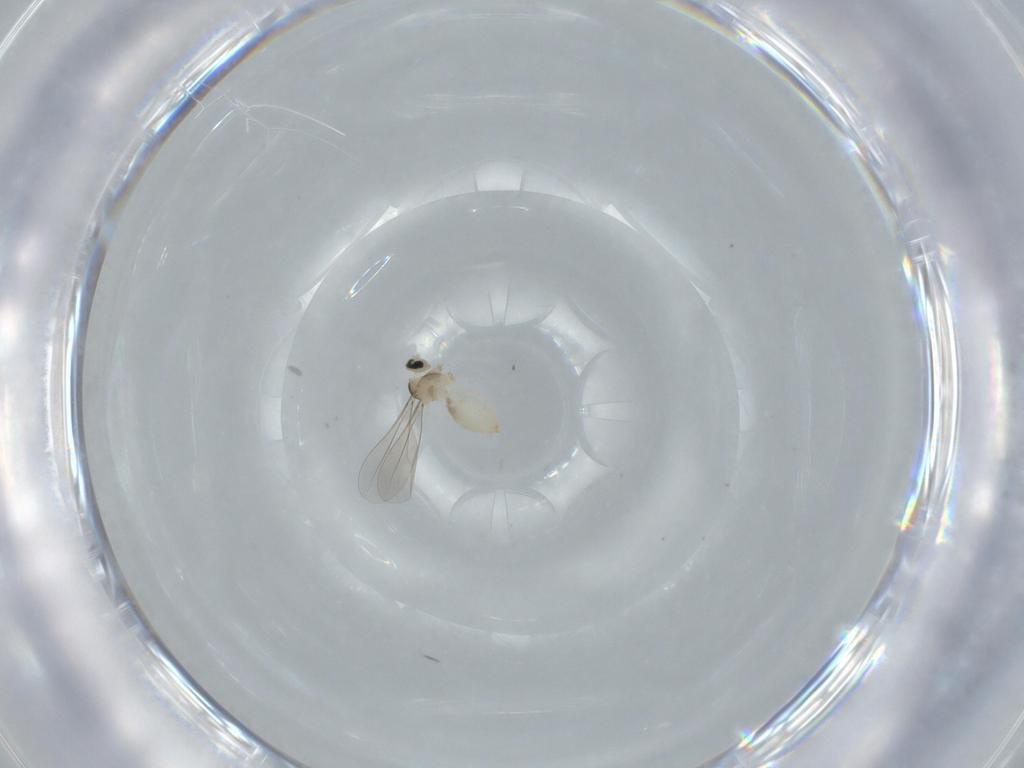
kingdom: Animalia
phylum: Arthropoda
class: Insecta
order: Diptera
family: Cecidomyiidae
